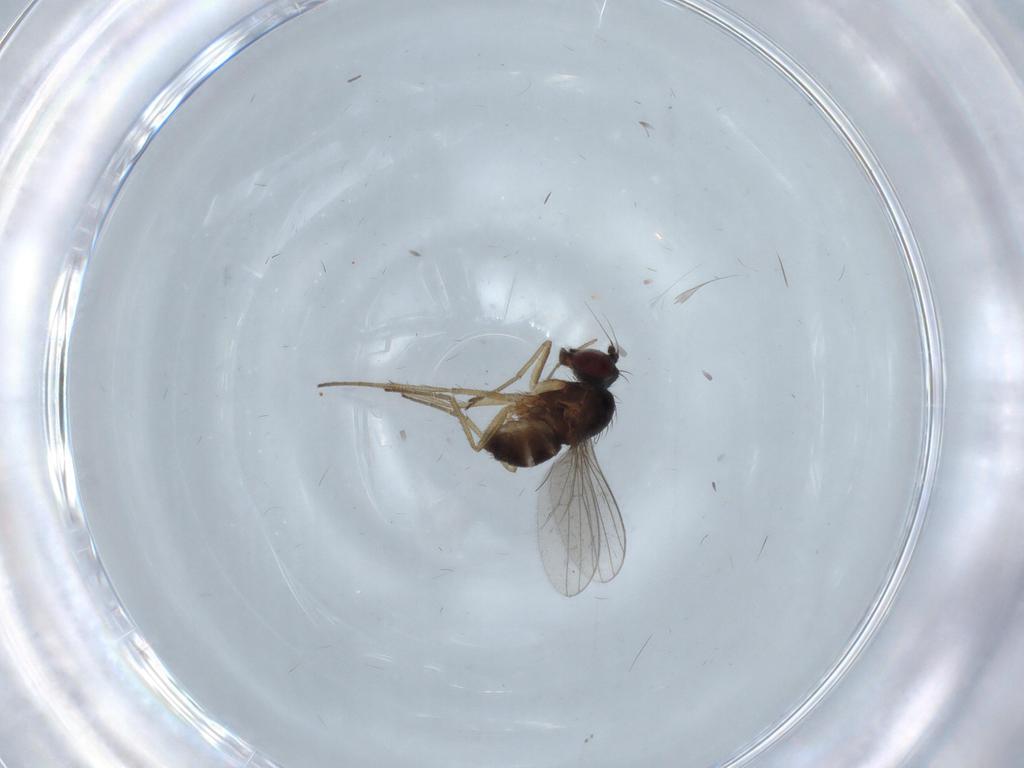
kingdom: Animalia
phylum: Arthropoda
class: Insecta
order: Diptera
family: Dolichopodidae
